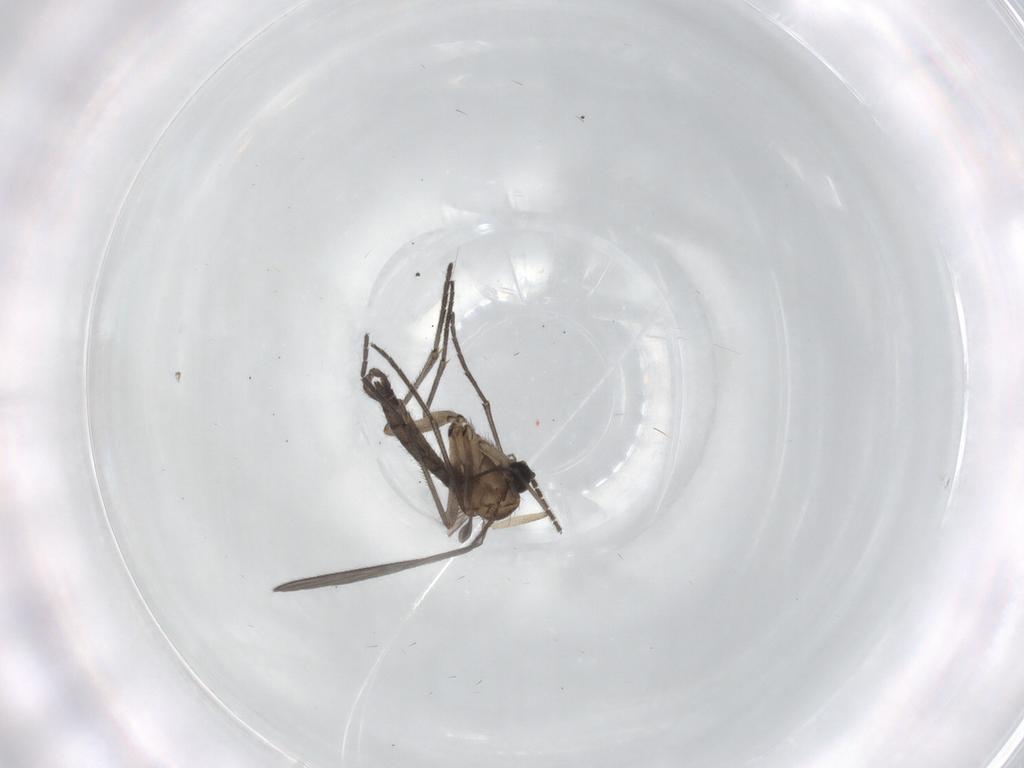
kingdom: Animalia
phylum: Arthropoda
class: Insecta
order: Diptera
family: Sciaridae
